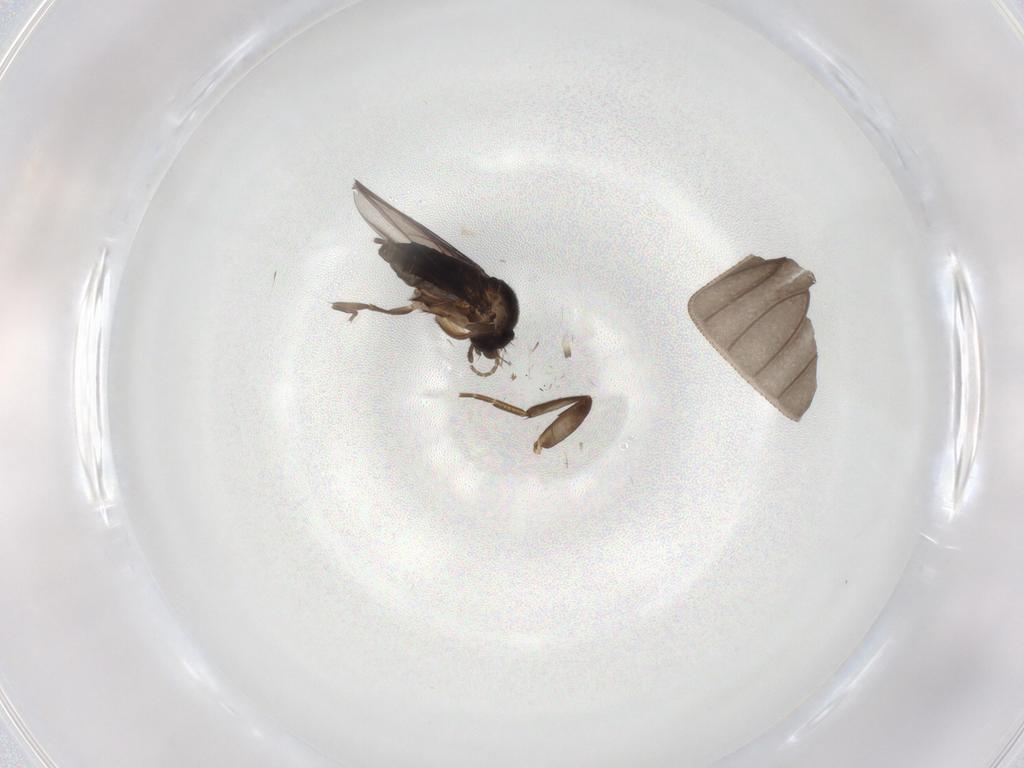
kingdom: Animalia
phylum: Arthropoda
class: Insecta
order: Diptera
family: Phoridae
